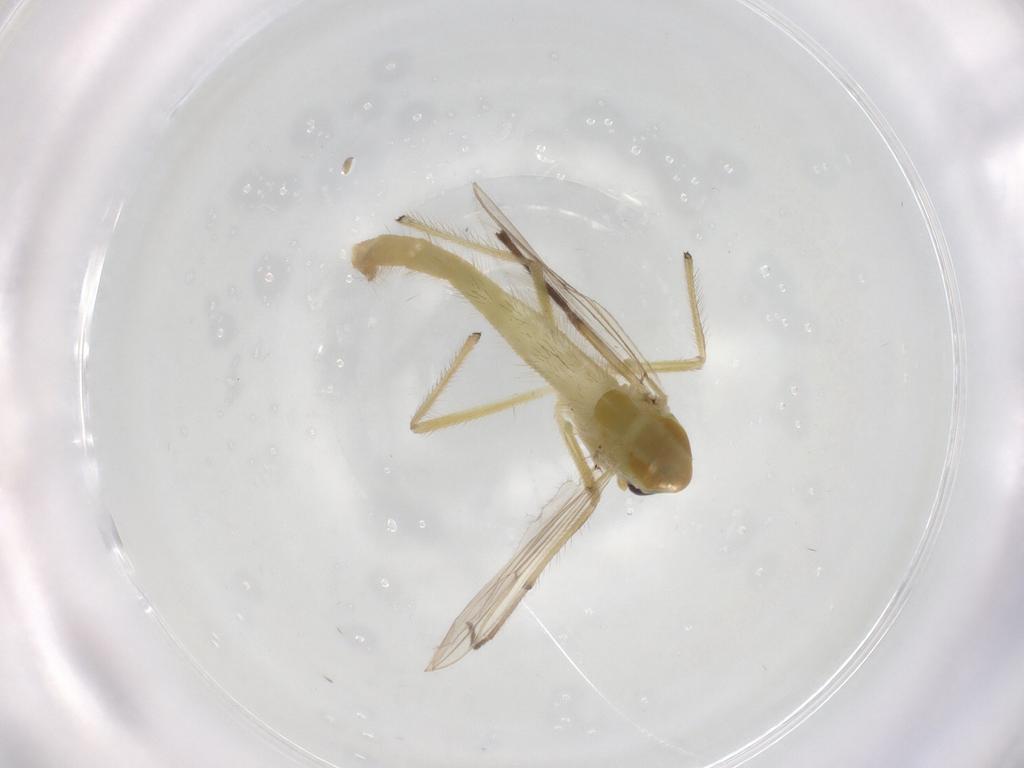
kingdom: Animalia
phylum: Arthropoda
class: Insecta
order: Diptera
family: Chironomidae
